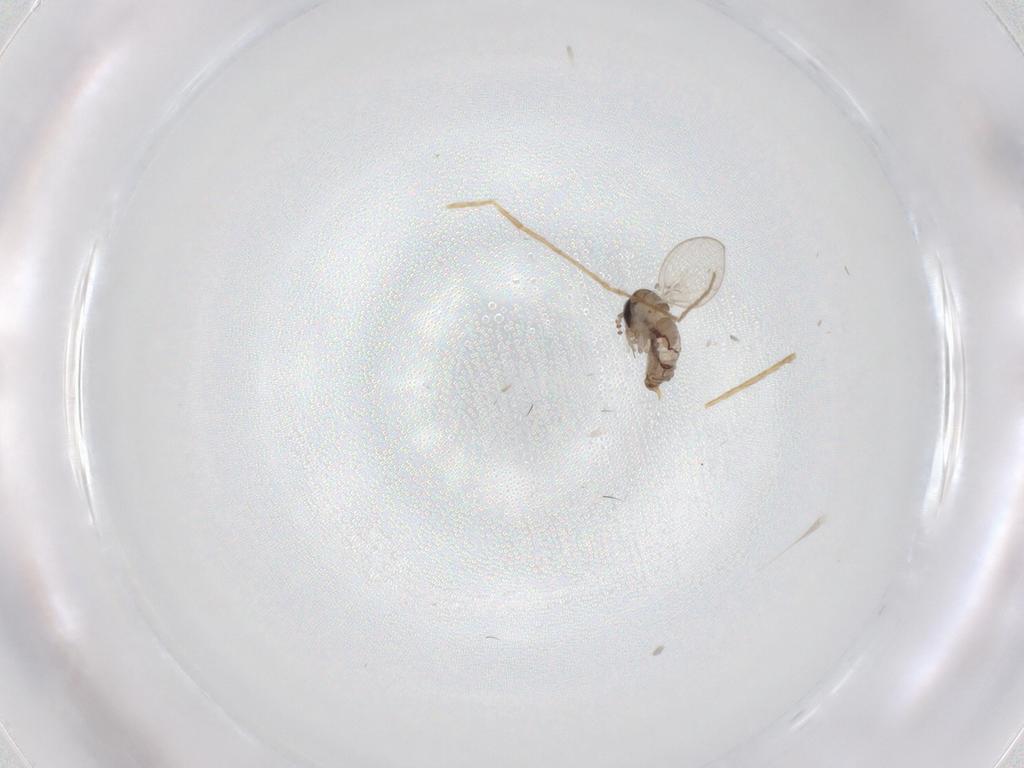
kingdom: Animalia
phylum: Arthropoda
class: Insecta
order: Diptera
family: Psychodidae
